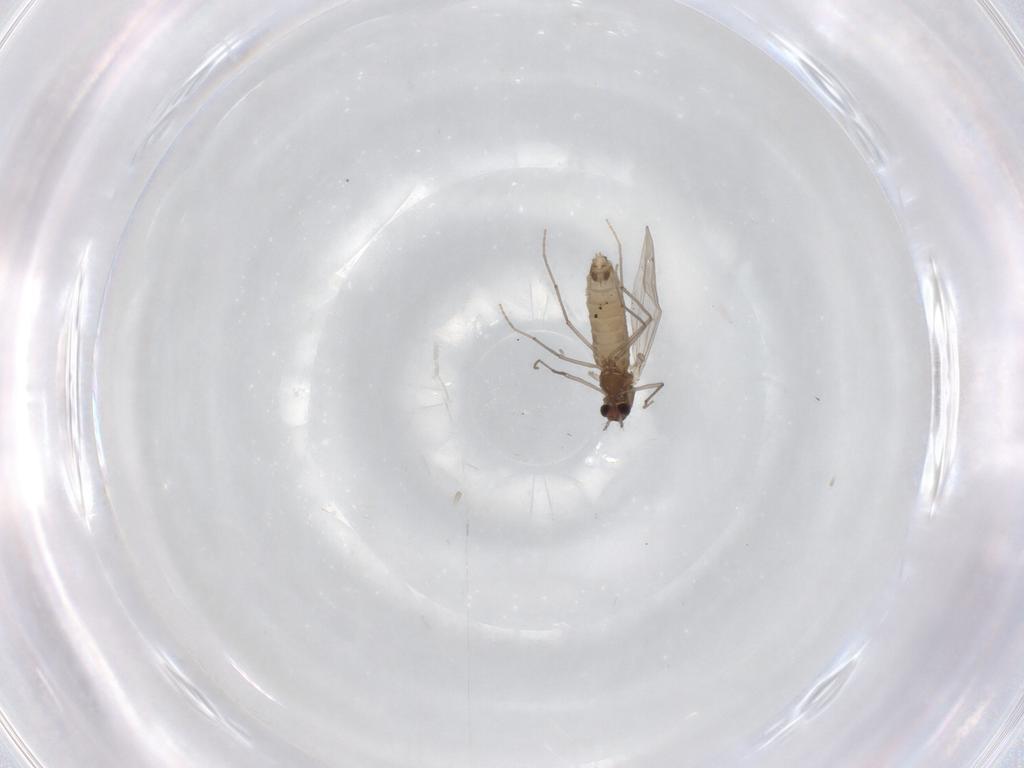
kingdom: Animalia
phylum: Arthropoda
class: Insecta
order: Diptera
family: Chironomidae
